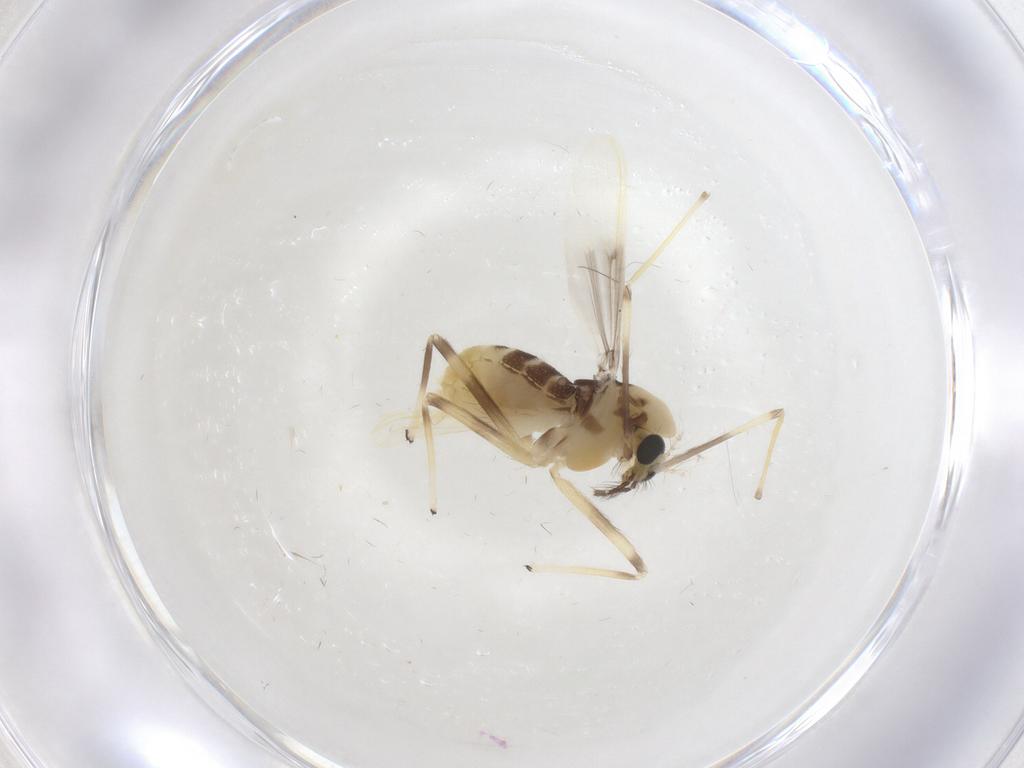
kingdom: Animalia
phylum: Arthropoda
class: Insecta
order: Diptera
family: Chironomidae
